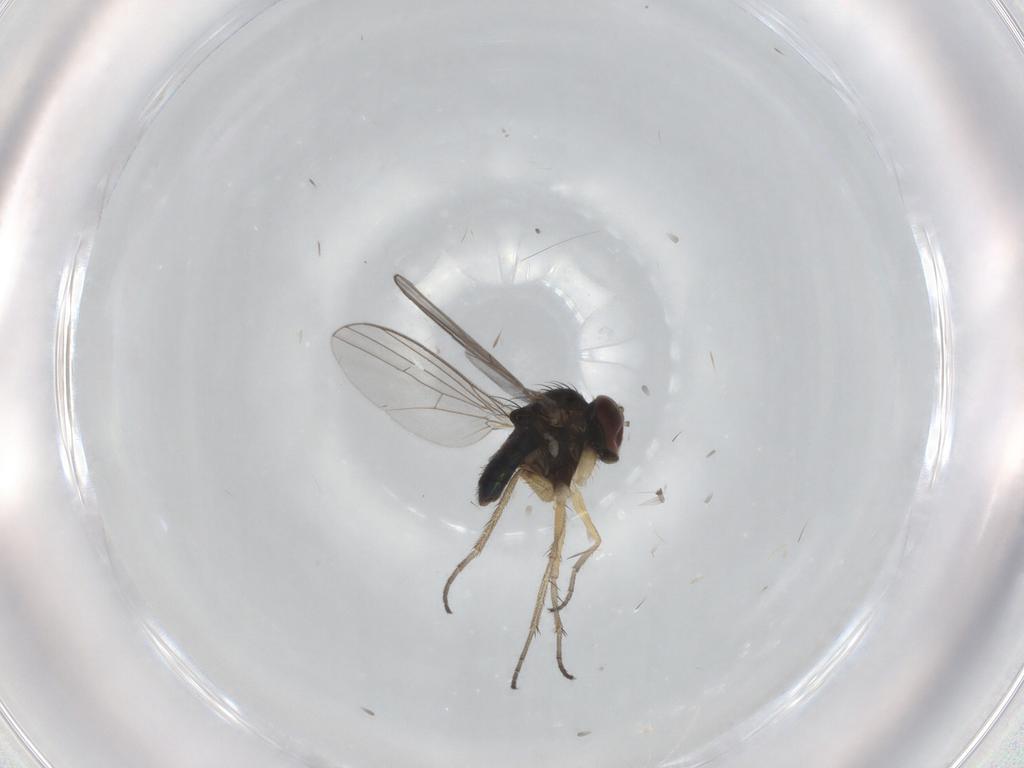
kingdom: Animalia
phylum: Arthropoda
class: Insecta
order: Diptera
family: Dolichopodidae
